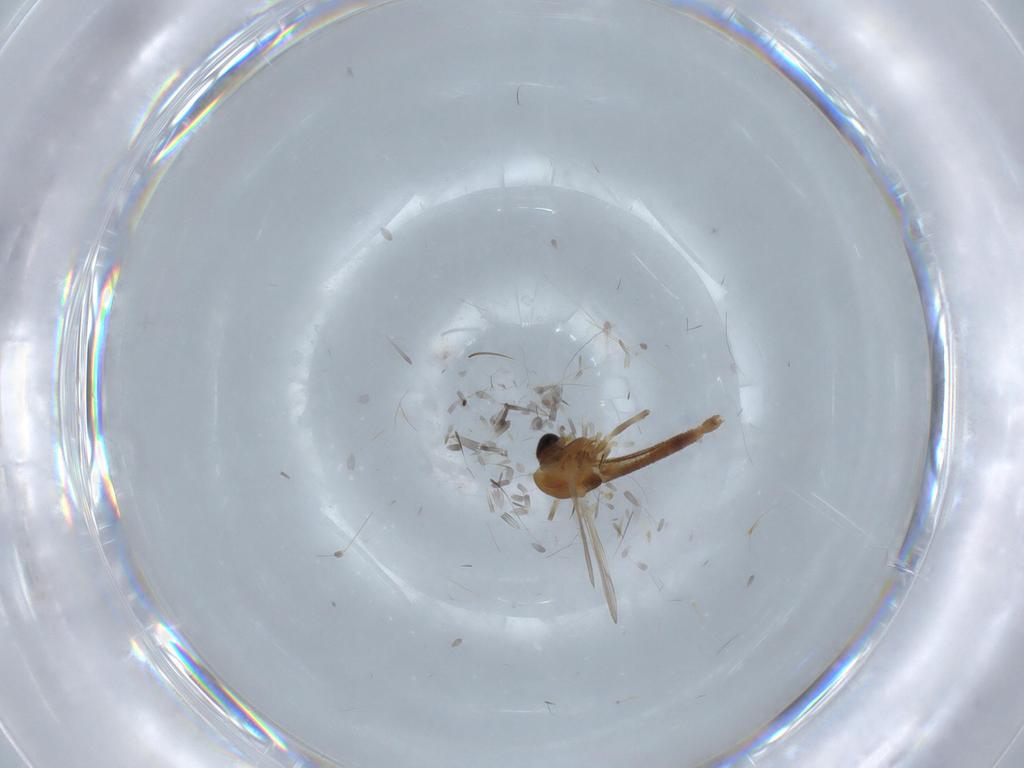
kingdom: Animalia
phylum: Arthropoda
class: Insecta
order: Diptera
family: Chironomidae
